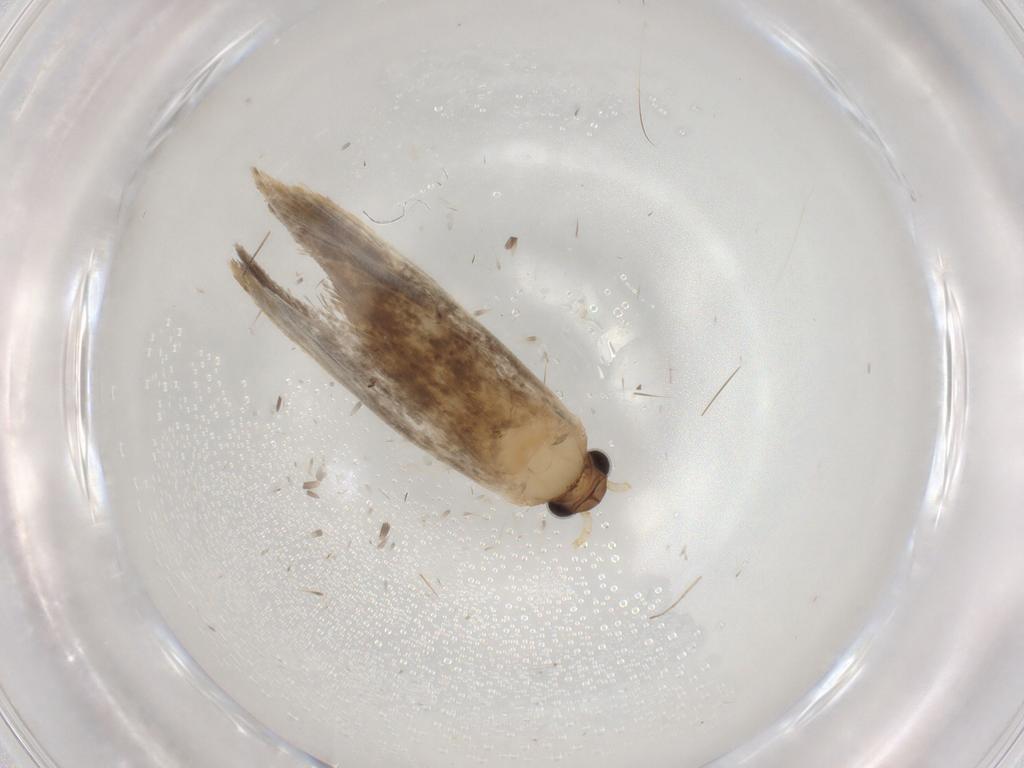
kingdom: Animalia
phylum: Arthropoda
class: Insecta
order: Lepidoptera
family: Tineidae
